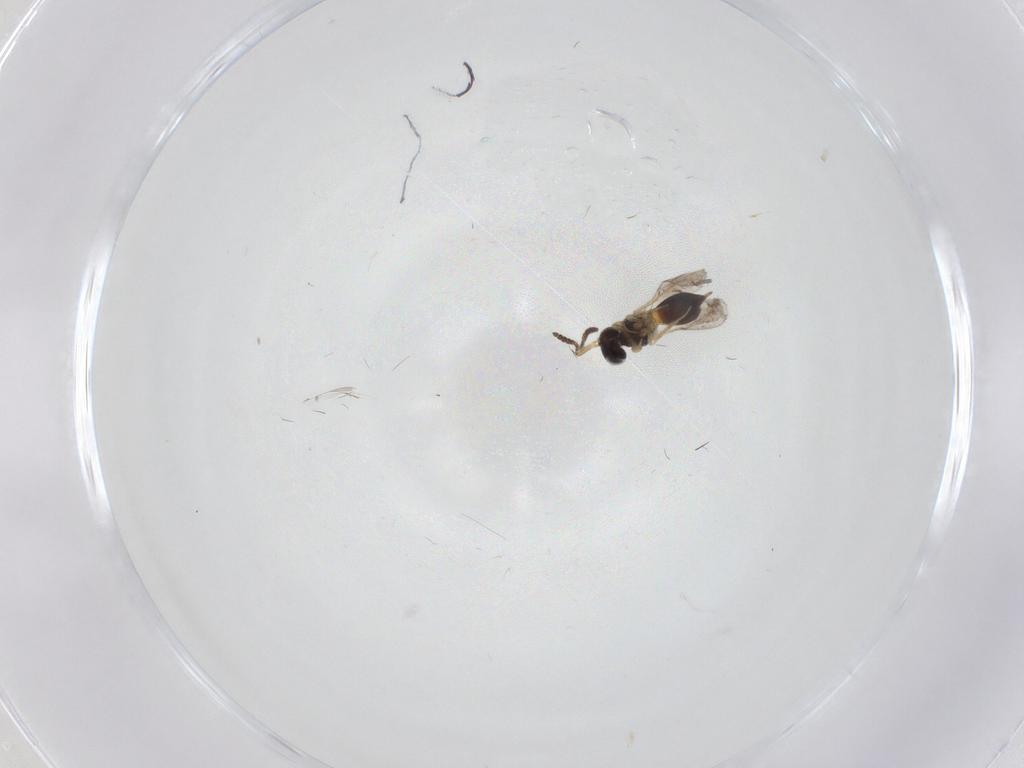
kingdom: Animalia
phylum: Arthropoda
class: Insecta
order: Hymenoptera
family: Scelionidae
